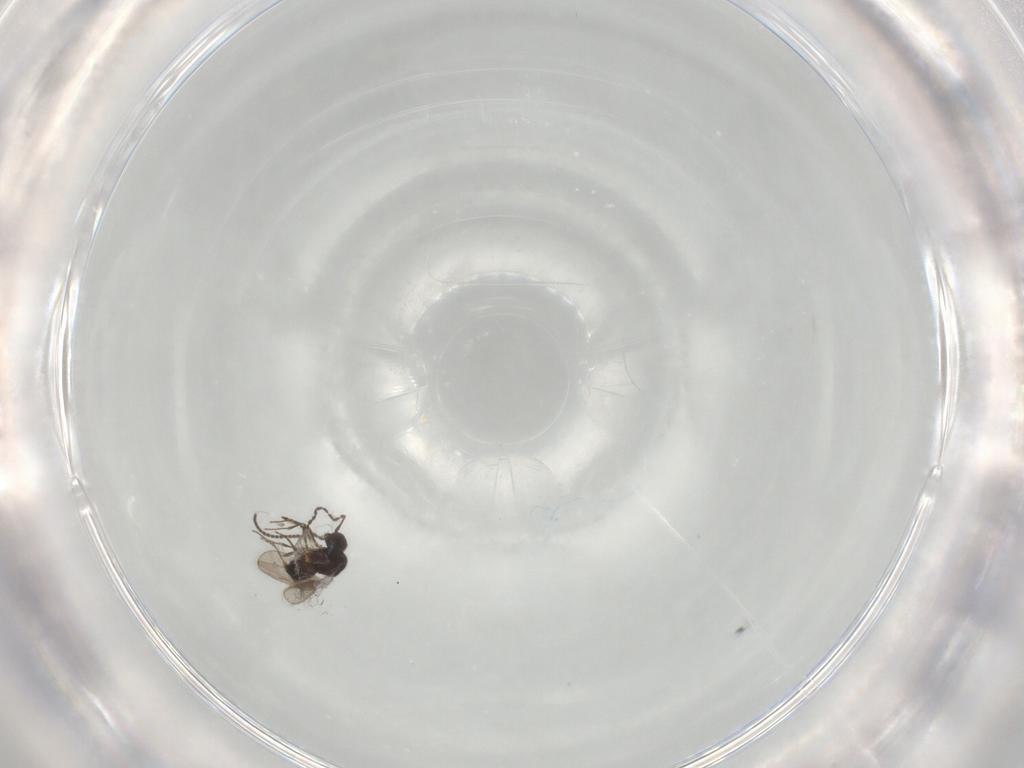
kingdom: Animalia
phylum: Arthropoda
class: Insecta
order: Hymenoptera
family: Ceraphronidae
